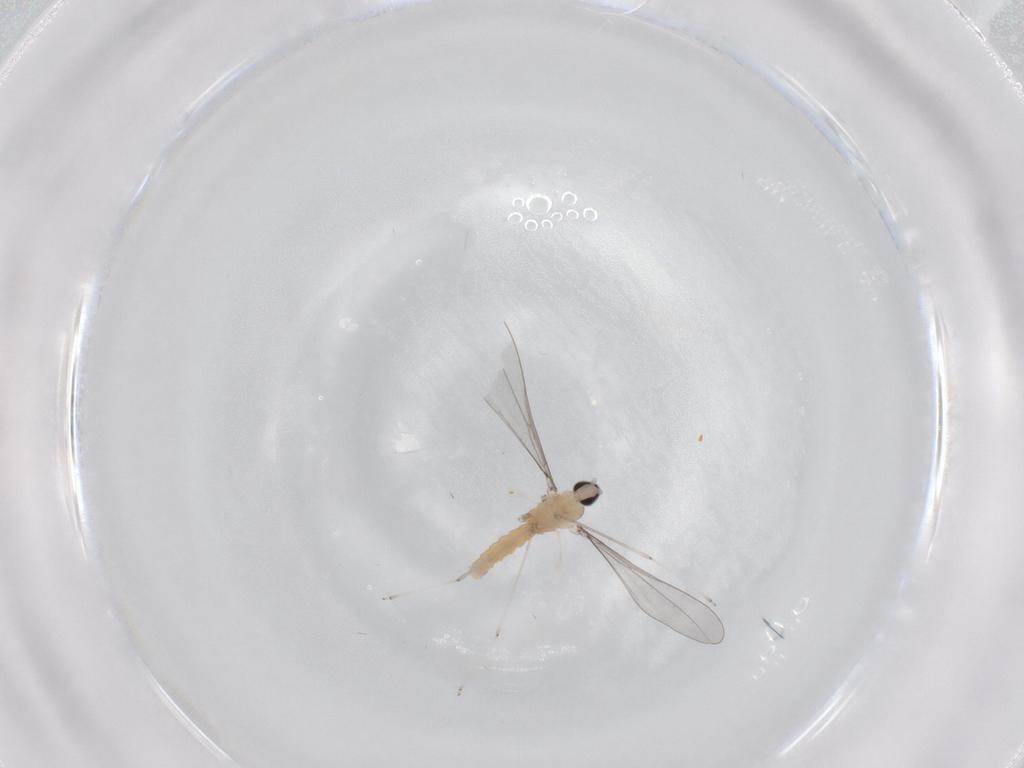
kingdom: Animalia
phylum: Arthropoda
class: Insecta
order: Diptera
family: Cecidomyiidae
